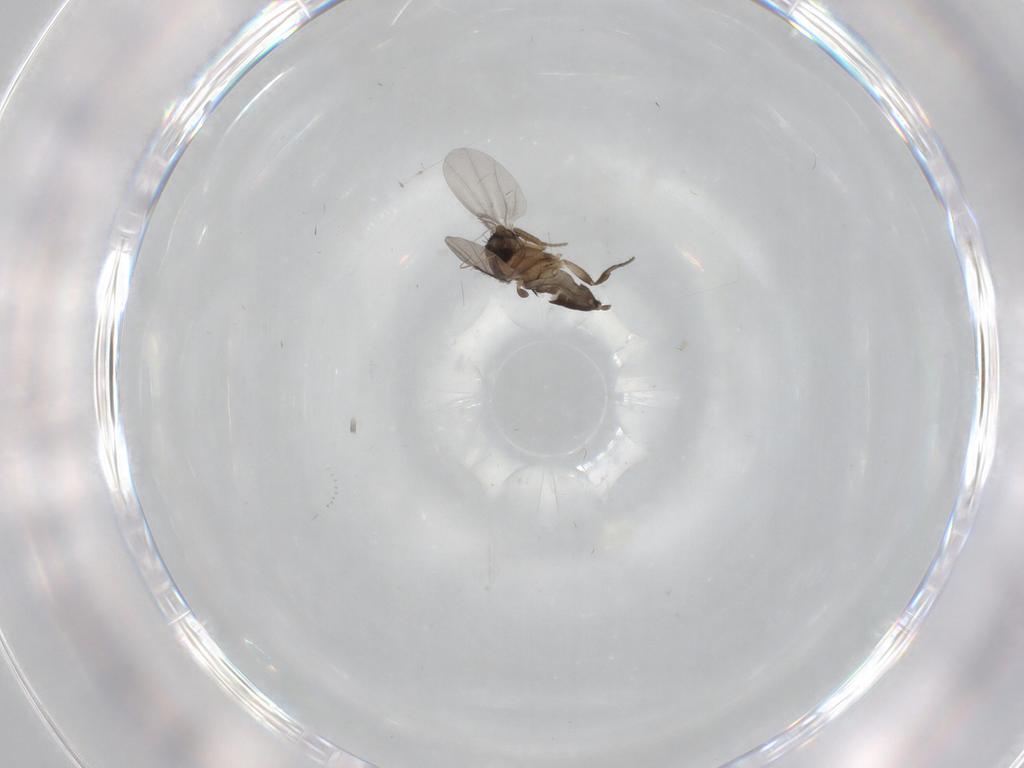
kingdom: Animalia
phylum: Arthropoda
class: Insecta
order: Diptera
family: Phoridae
